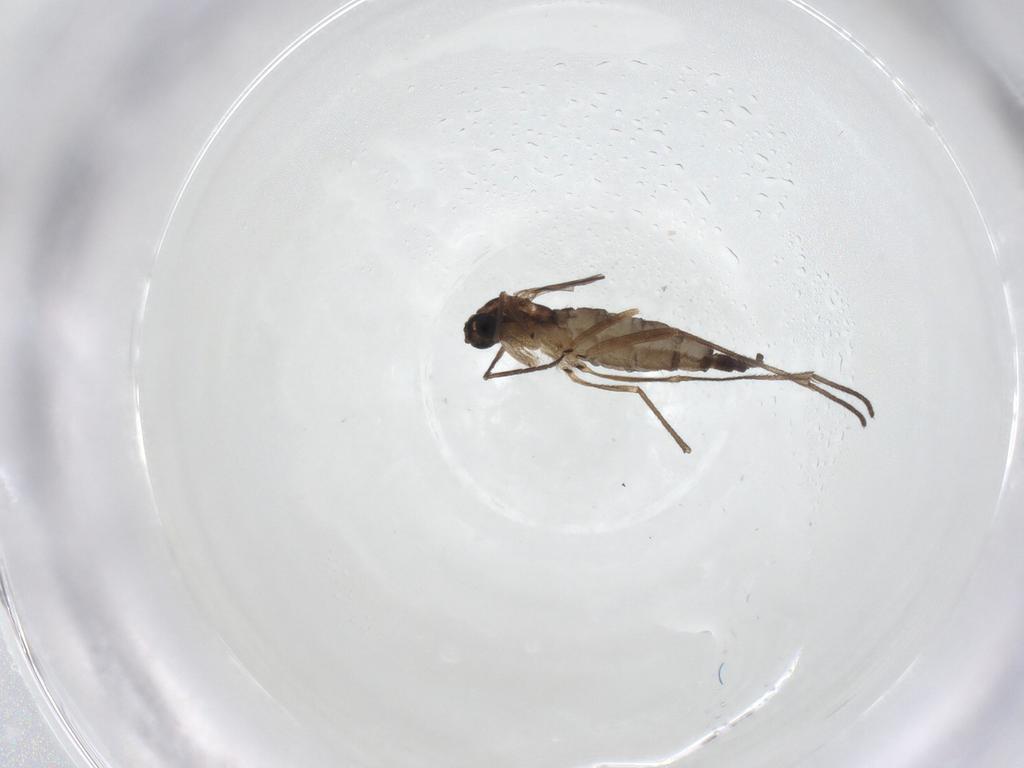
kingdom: Animalia
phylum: Arthropoda
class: Insecta
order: Diptera
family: Sciaridae
